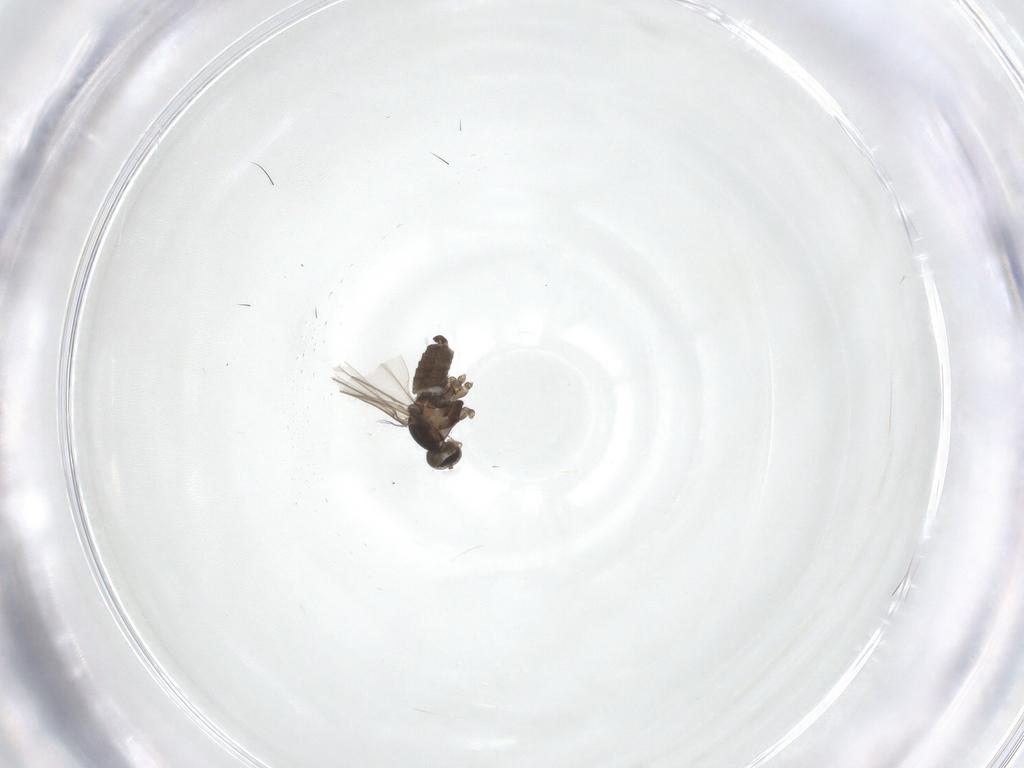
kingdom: Animalia
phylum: Arthropoda
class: Insecta
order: Diptera
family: Cecidomyiidae
